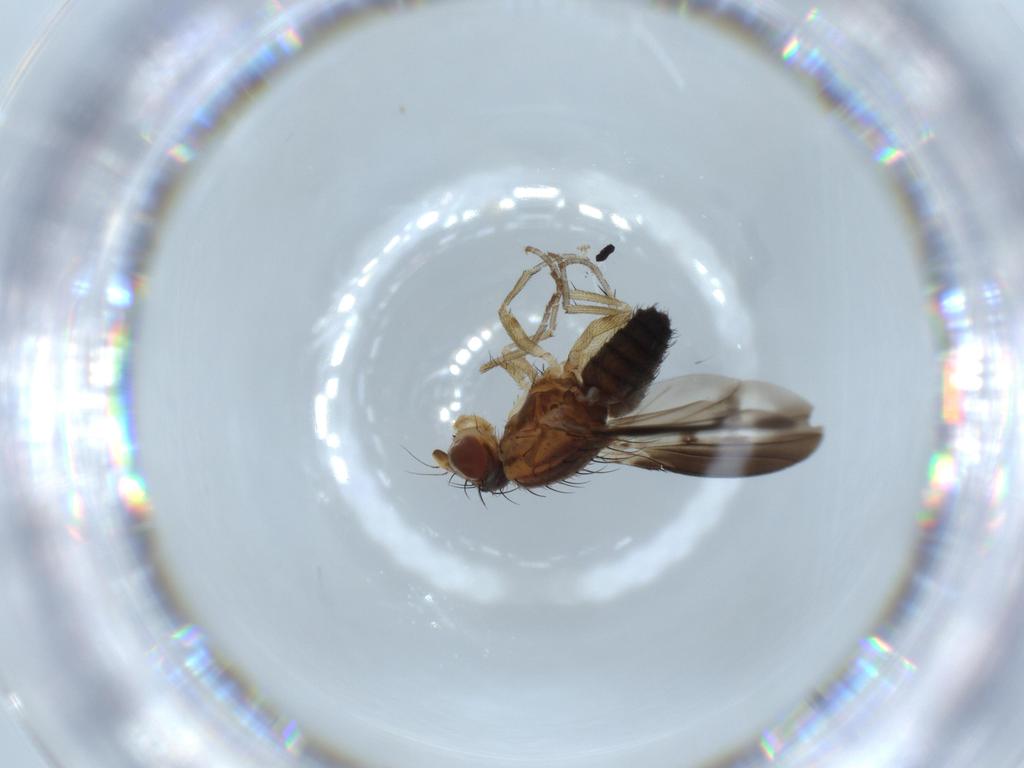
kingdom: Animalia
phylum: Arthropoda
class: Insecta
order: Diptera
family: Heleomyzidae
